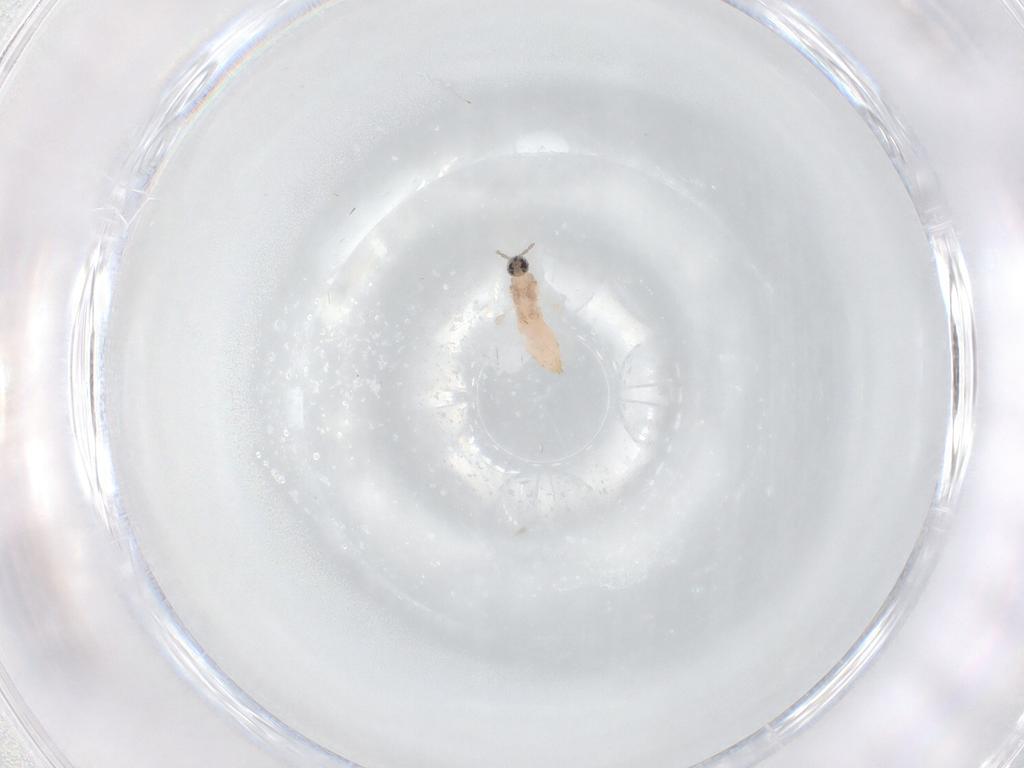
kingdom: Animalia
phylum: Arthropoda
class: Insecta
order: Diptera
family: Cecidomyiidae
